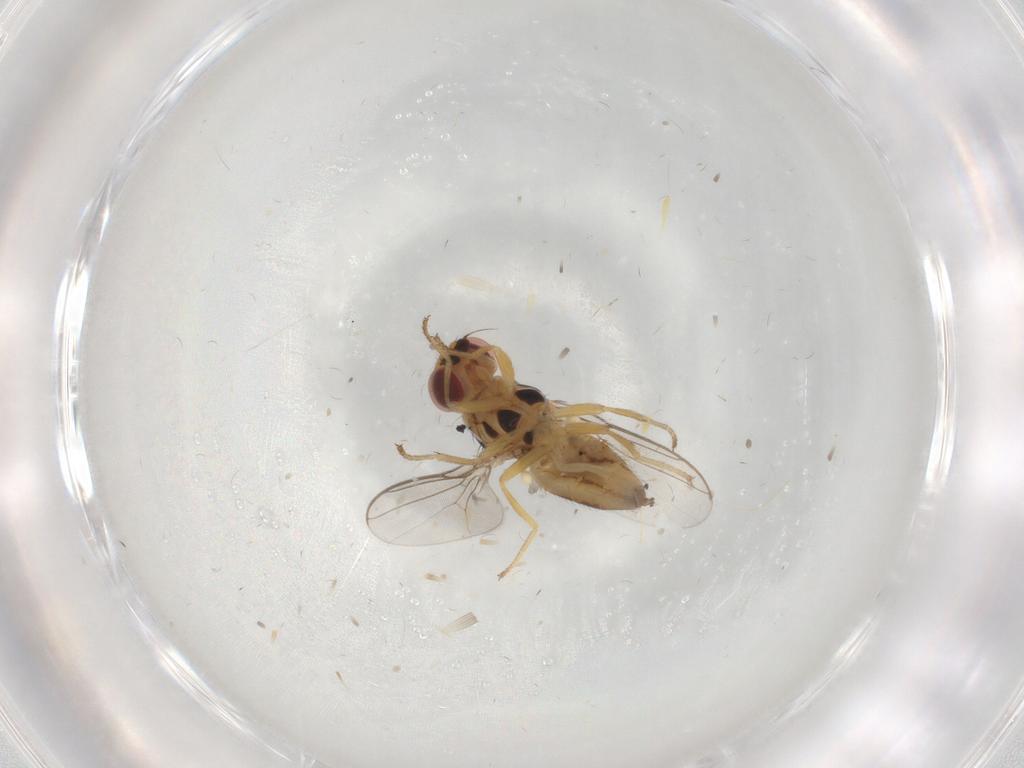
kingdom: Animalia
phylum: Arthropoda
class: Insecta
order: Diptera
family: Chloropidae
